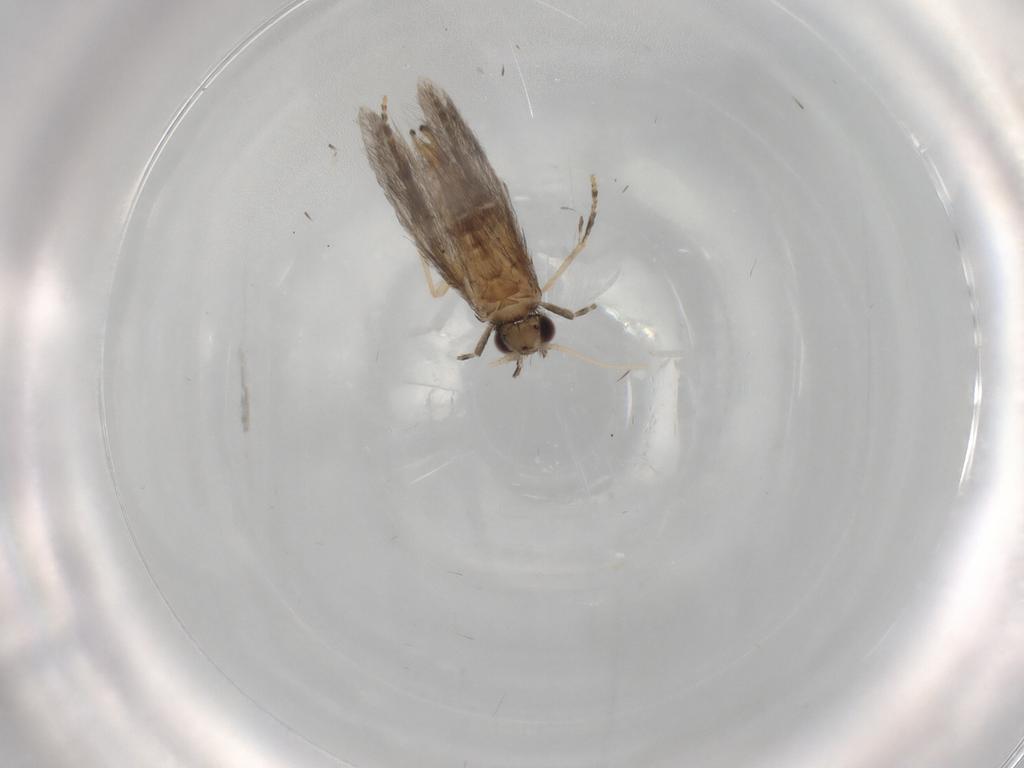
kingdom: Animalia
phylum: Arthropoda
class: Insecta
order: Trichoptera
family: Hydroptilidae
